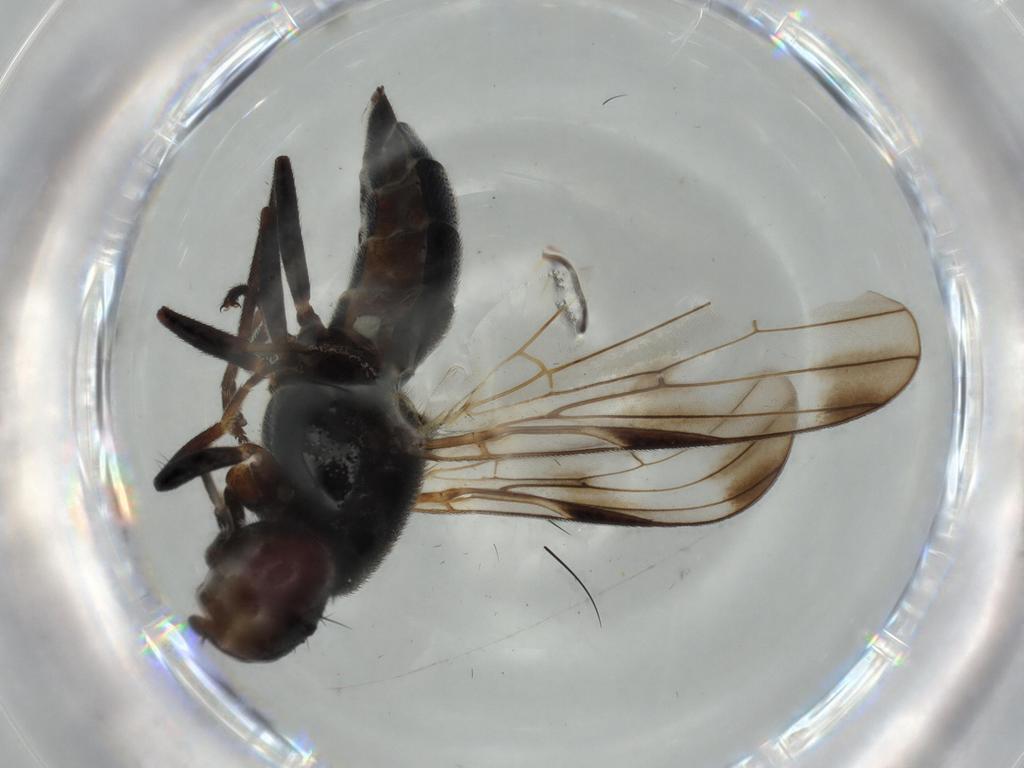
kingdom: Animalia
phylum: Arthropoda
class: Insecta
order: Diptera
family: Ulidiidae
